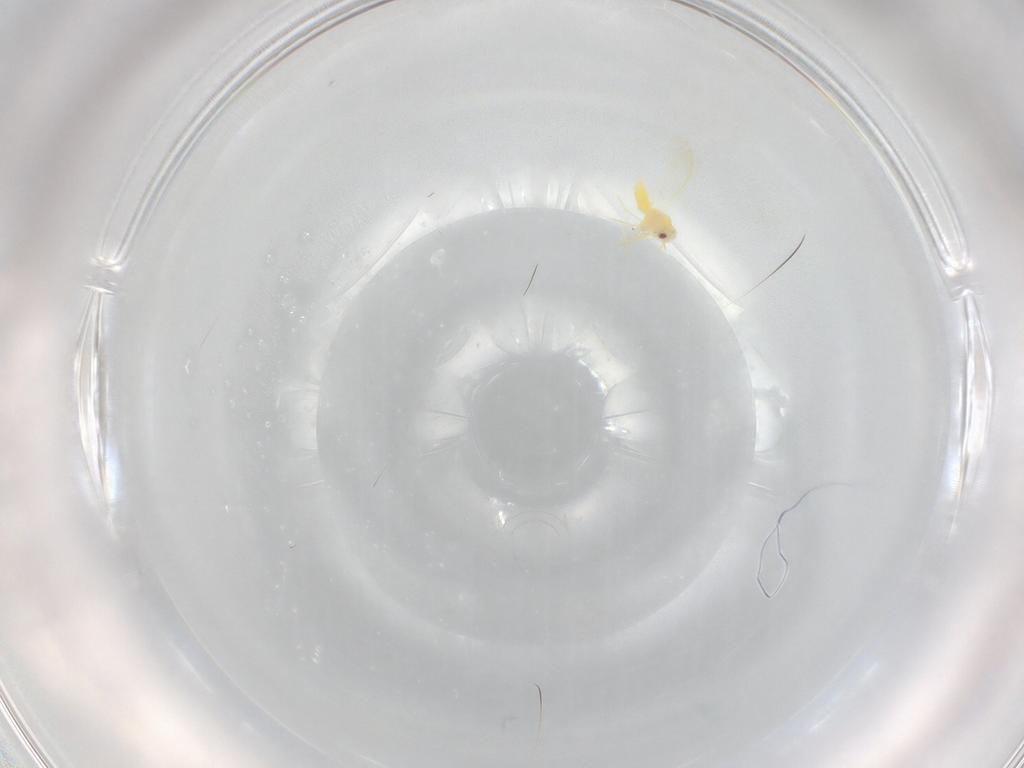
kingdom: Animalia
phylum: Arthropoda
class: Insecta
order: Hemiptera
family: Aleyrodidae
